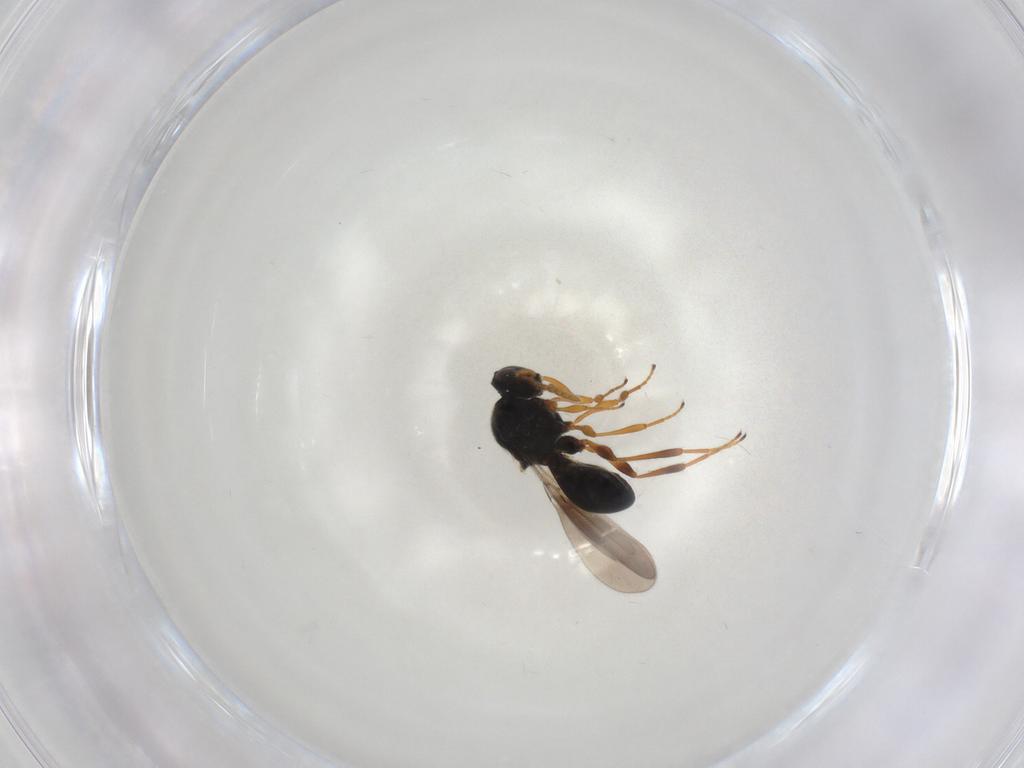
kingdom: Animalia
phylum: Arthropoda
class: Insecta
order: Hymenoptera
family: Platygastridae
